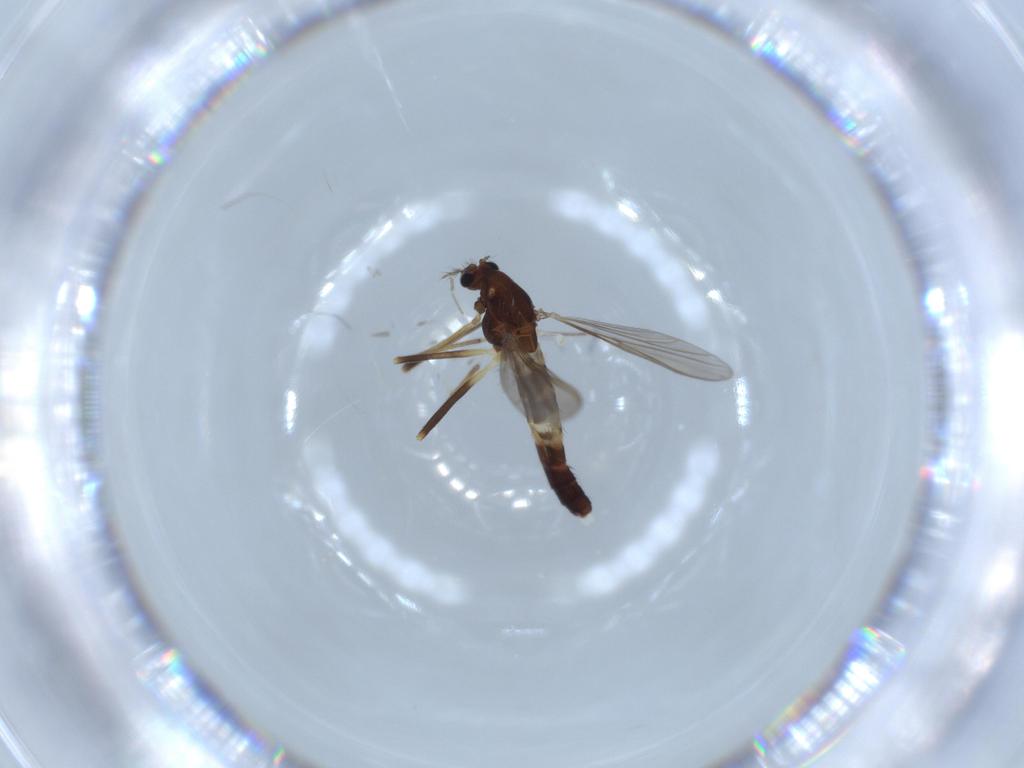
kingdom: Animalia
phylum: Arthropoda
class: Insecta
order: Diptera
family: Chironomidae
